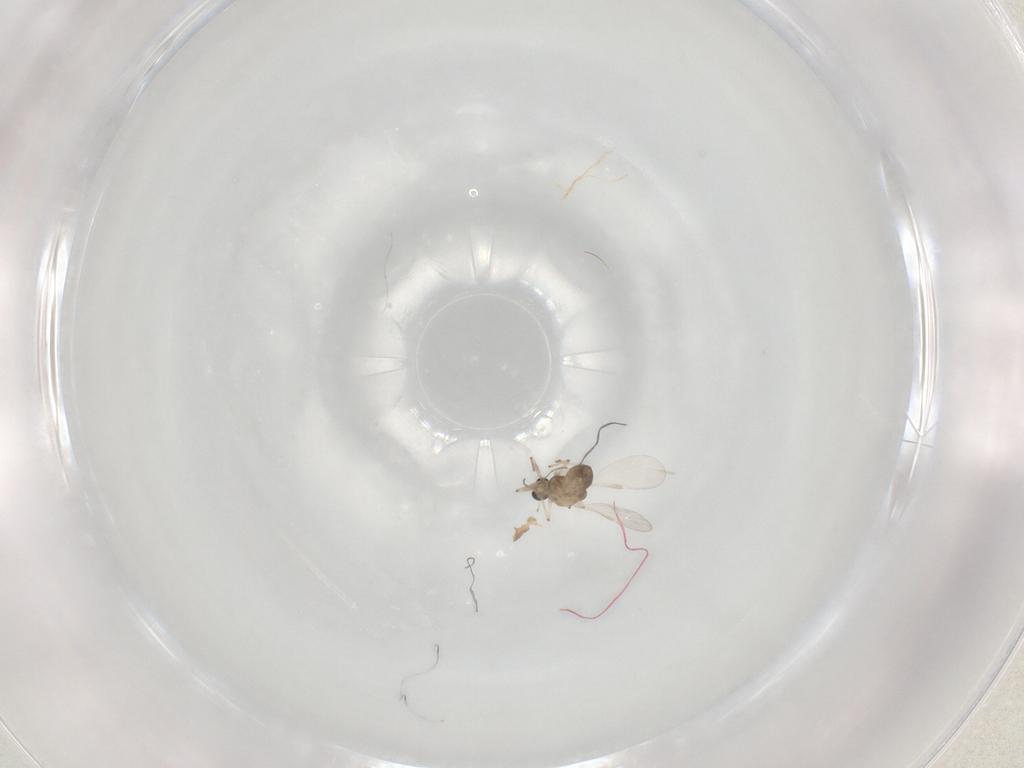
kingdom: Animalia
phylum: Arthropoda
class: Insecta
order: Diptera
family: Chironomidae
